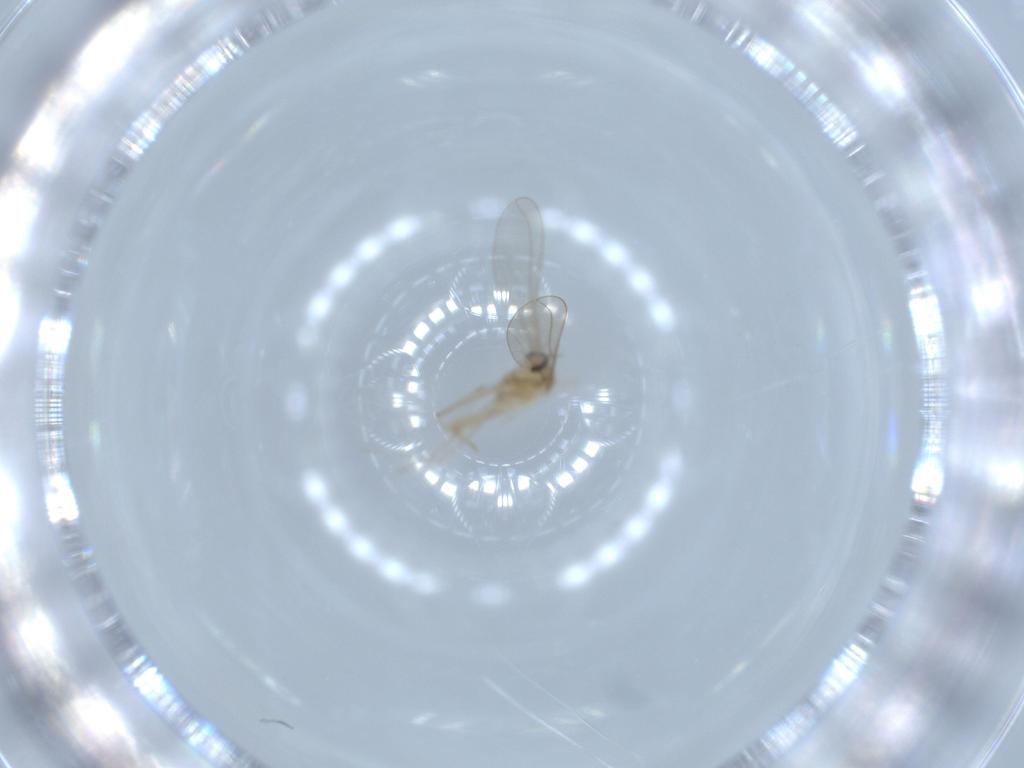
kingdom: Animalia
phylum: Arthropoda
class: Insecta
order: Diptera
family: Cecidomyiidae
